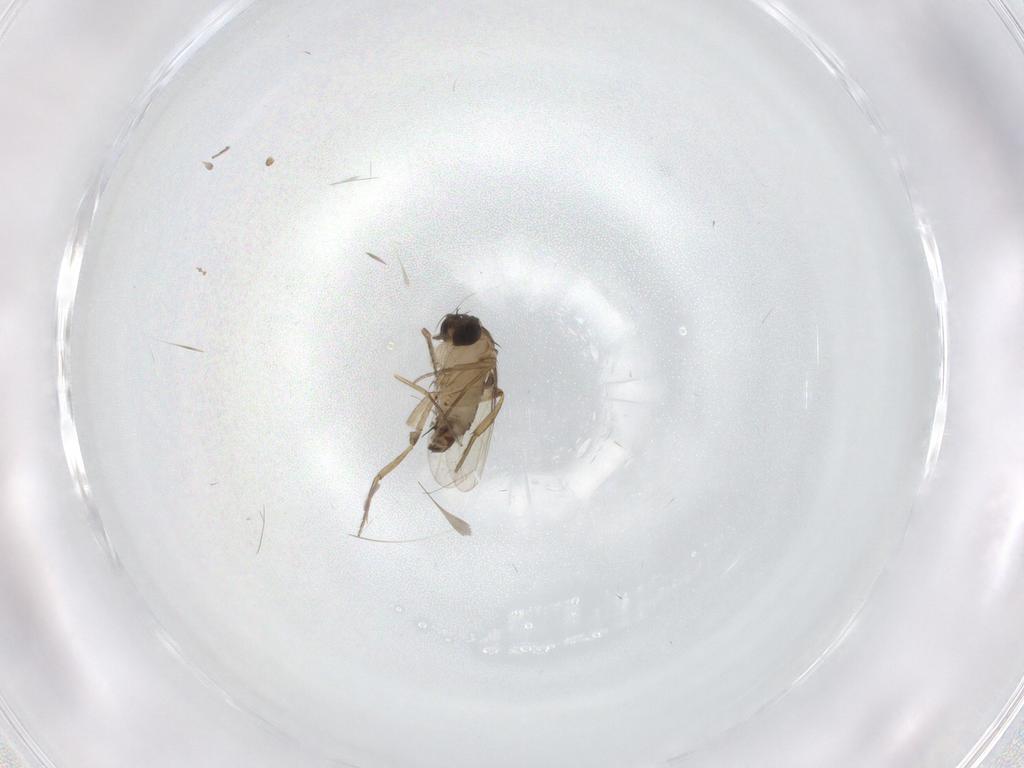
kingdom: Animalia
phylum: Arthropoda
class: Insecta
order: Diptera
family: Phoridae
